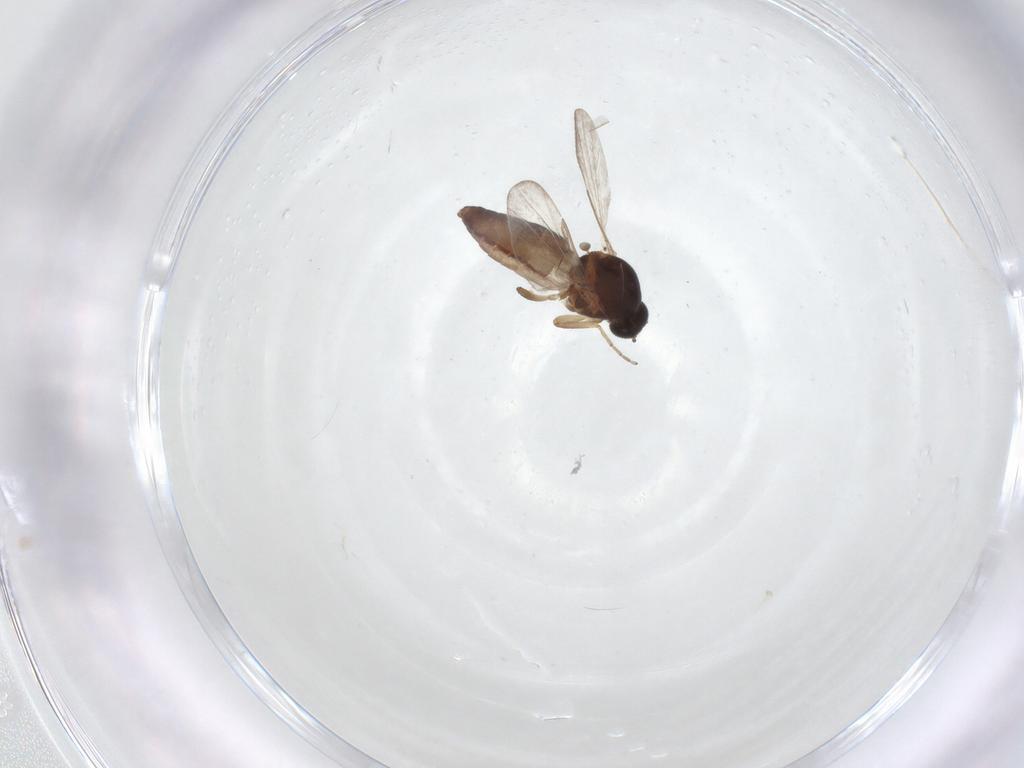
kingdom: Animalia
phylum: Arthropoda
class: Insecta
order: Diptera
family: Ceratopogonidae
